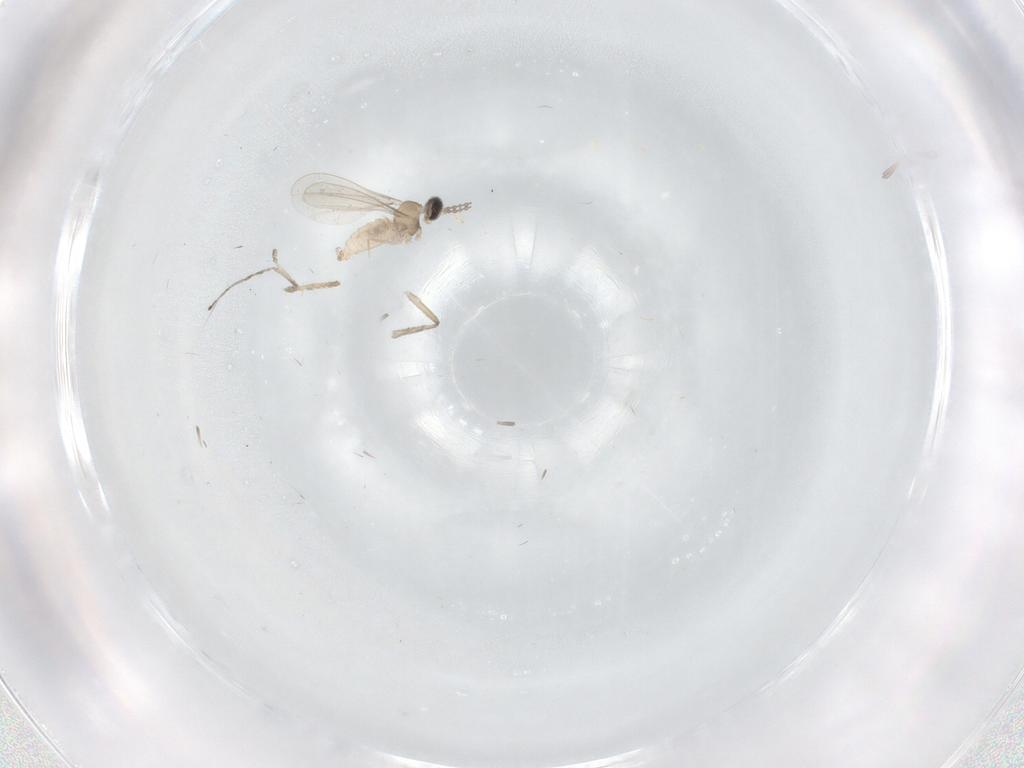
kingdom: Animalia
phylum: Arthropoda
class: Insecta
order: Diptera
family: Psychodidae
